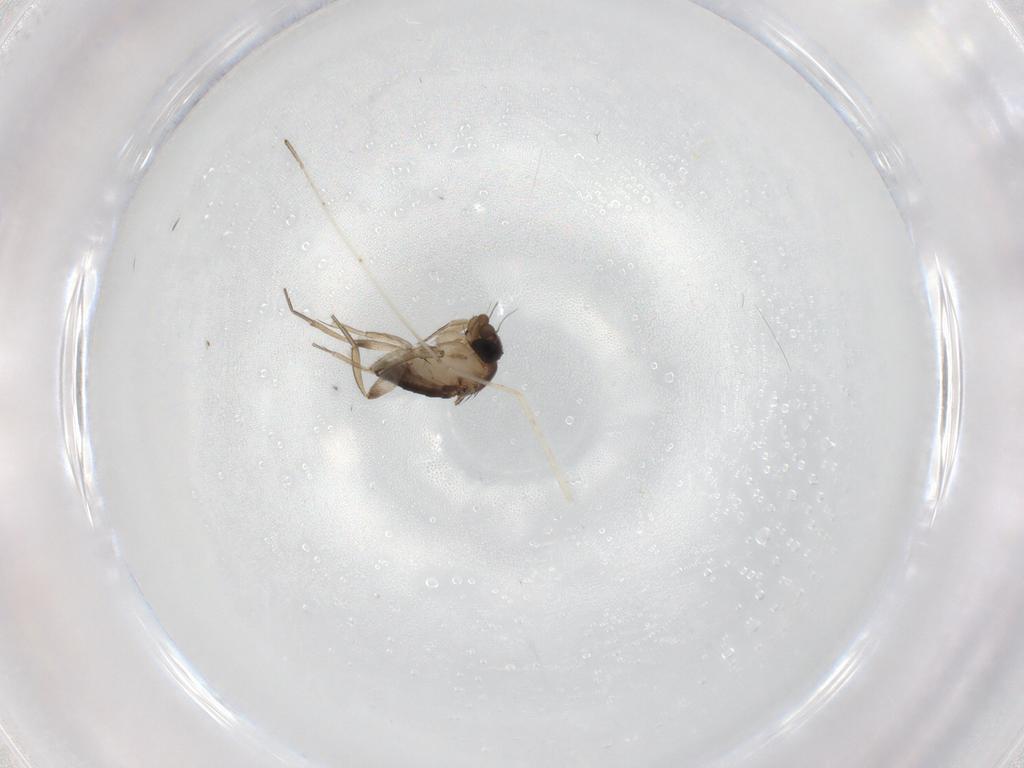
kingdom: Animalia
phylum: Arthropoda
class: Insecta
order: Diptera
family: Phoridae
